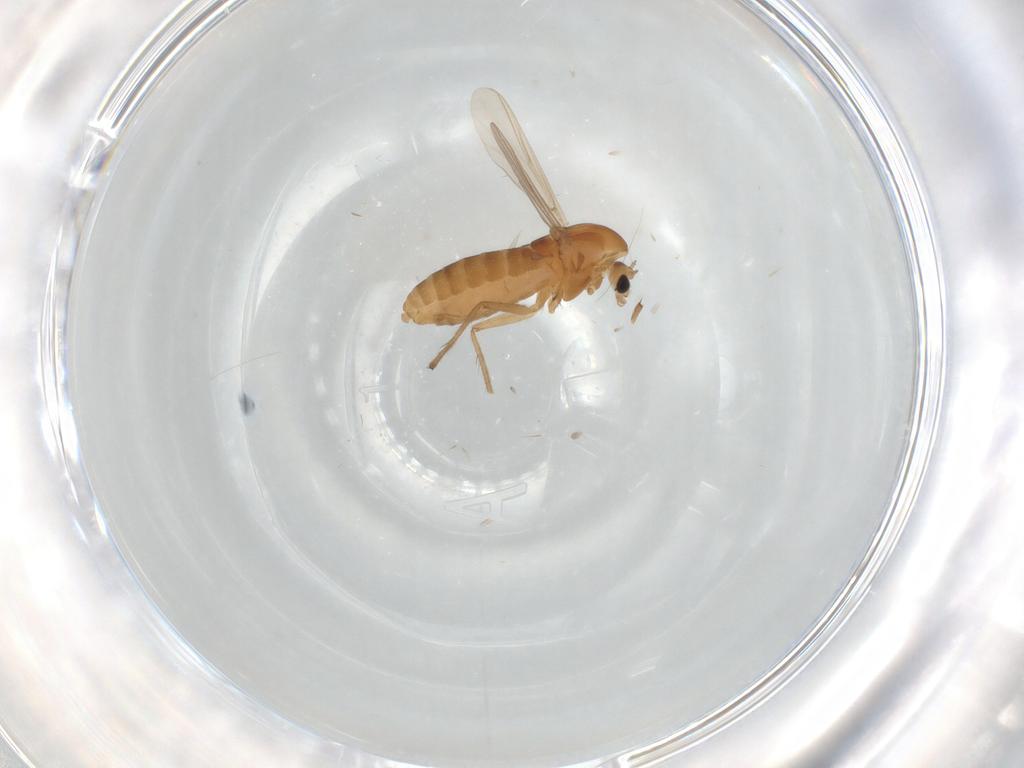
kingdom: Animalia
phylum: Arthropoda
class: Insecta
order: Diptera
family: Chironomidae
